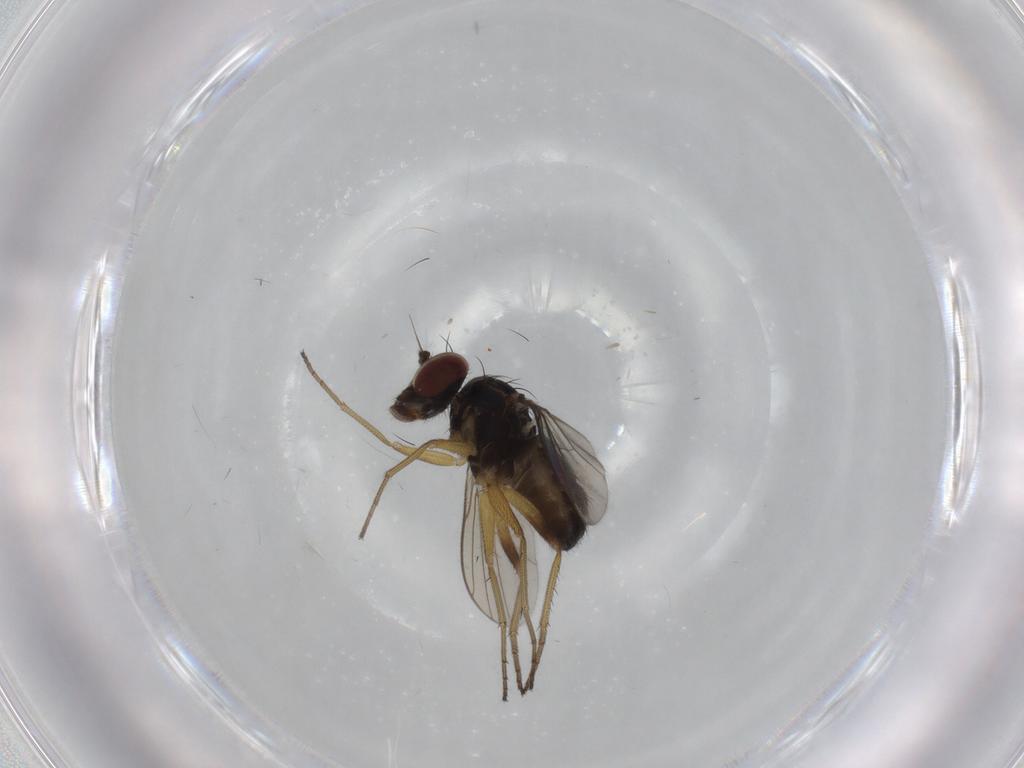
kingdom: Animalia
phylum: Arthropoda
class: Insecta
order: Diptera
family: Dolichopodidae
